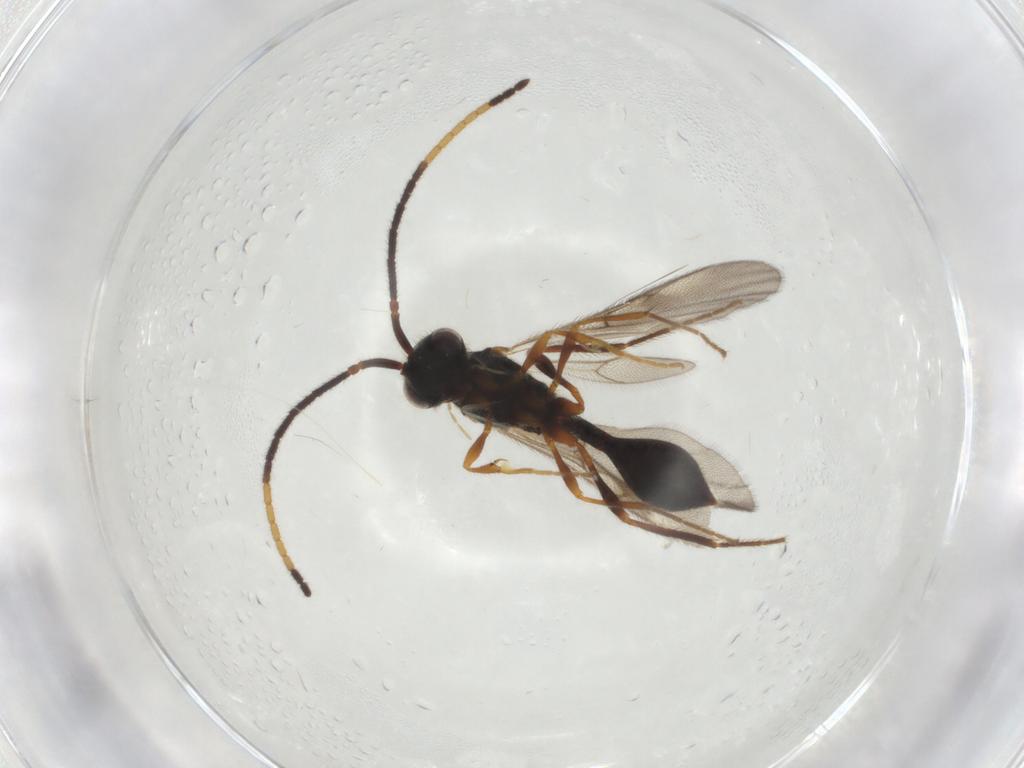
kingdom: Animalia
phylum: Arthropoda
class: Insecta
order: Hymenoptera
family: Diapriidae
